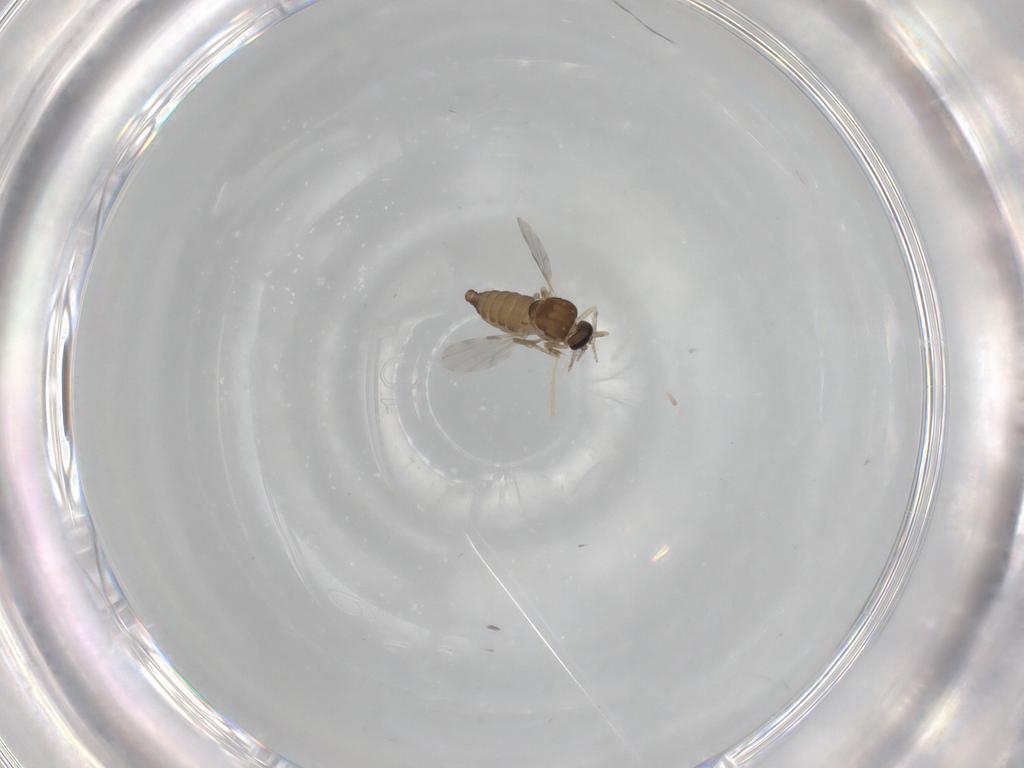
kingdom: Animalia
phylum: Arthropoda
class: Insecta
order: Diptera
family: Ceratopogonidae
